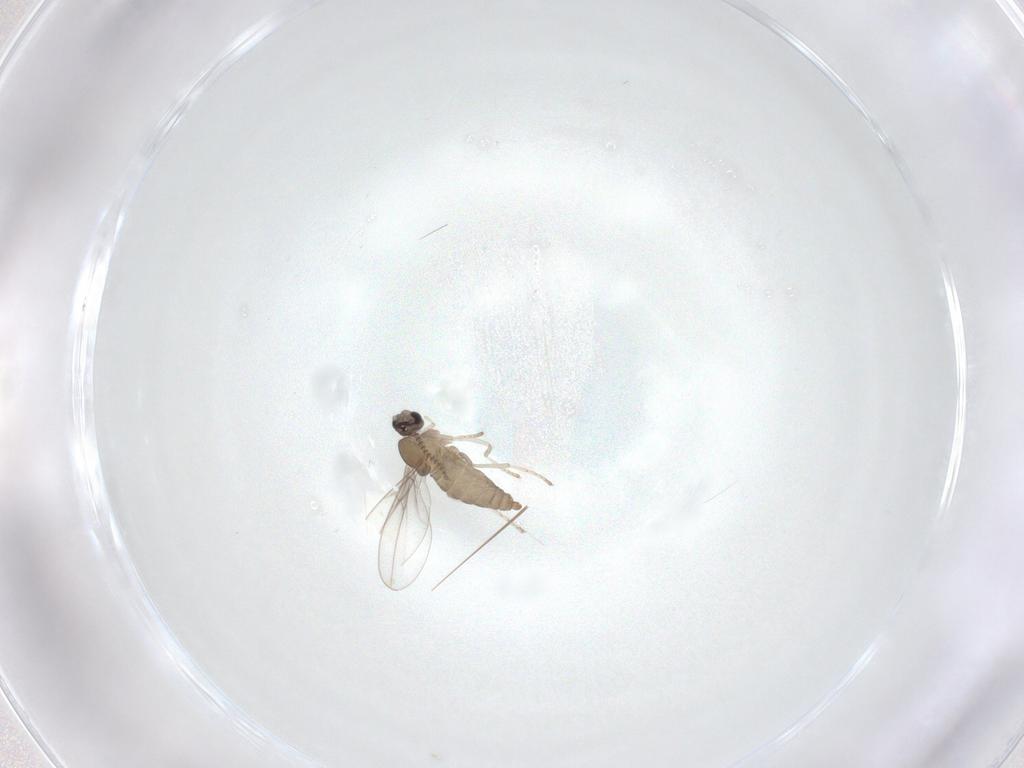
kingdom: Animalia
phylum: Arthropoda
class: Insecta
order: Diptera
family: Cecidomyiidae
